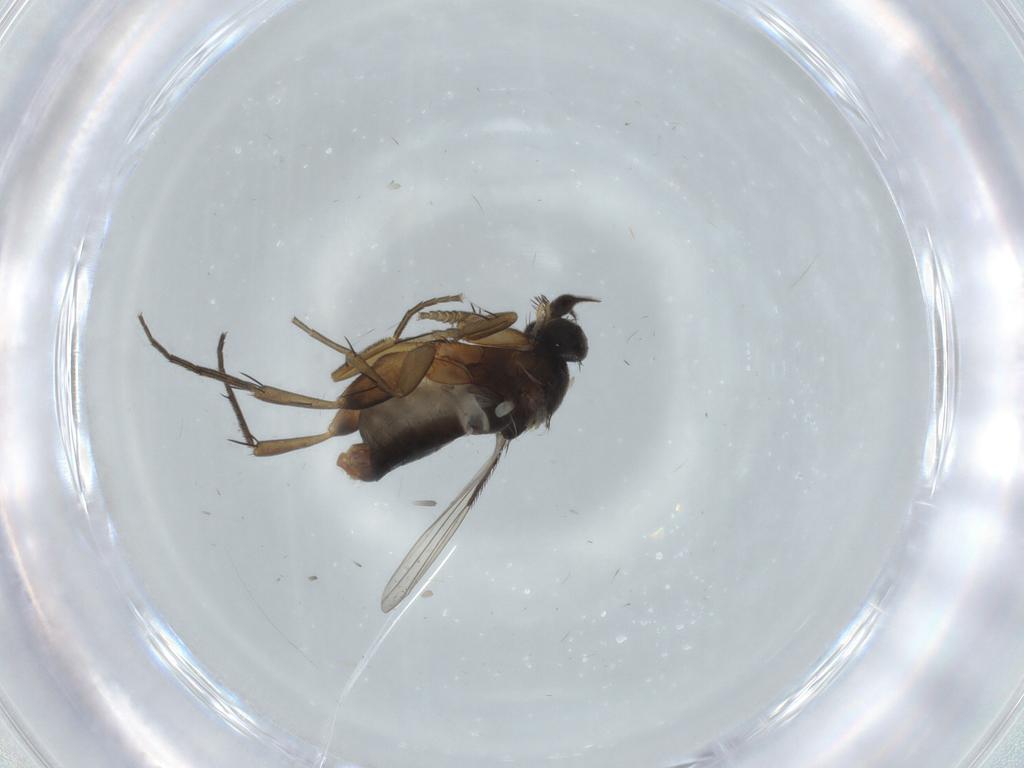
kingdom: Animalia
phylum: Arthropoda
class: Insecta
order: Diptera
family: Phoridae
